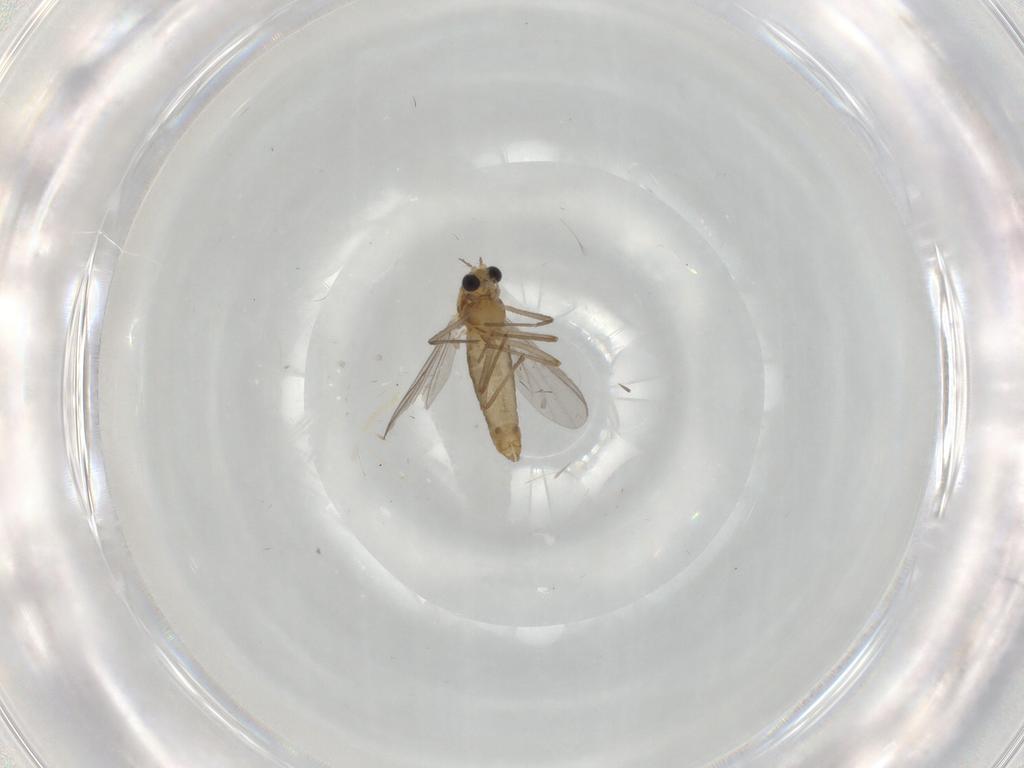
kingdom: Animalia
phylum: Arthropoda
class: Insecta
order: Diptera
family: Chironomidae
